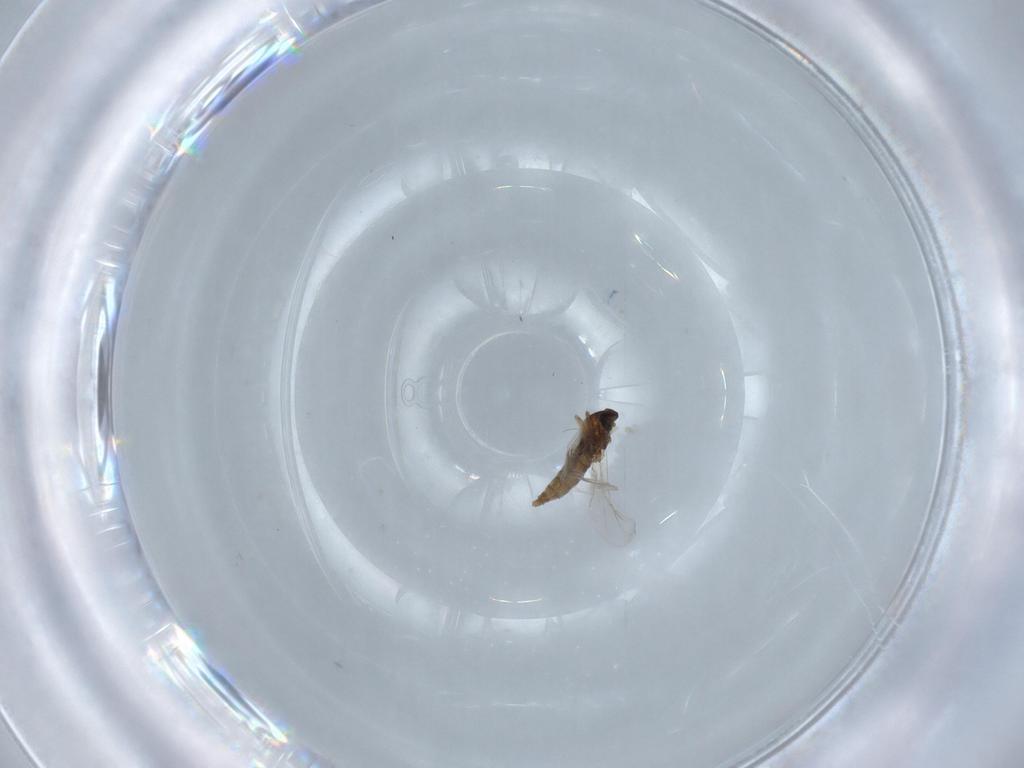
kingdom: Animalia
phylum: Arthropoda
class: Insecta
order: Diptera
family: Cecidomyiidae
